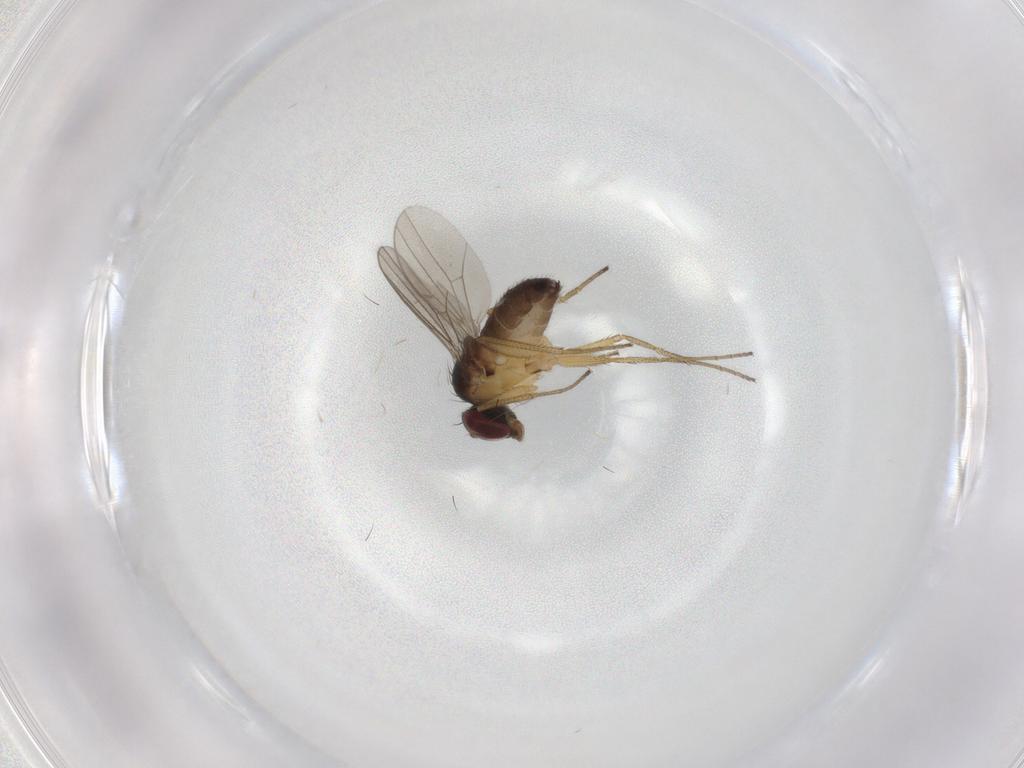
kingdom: Animalia
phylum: Arthropoda
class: Insecta
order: Diptera
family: Dolichopodidae
